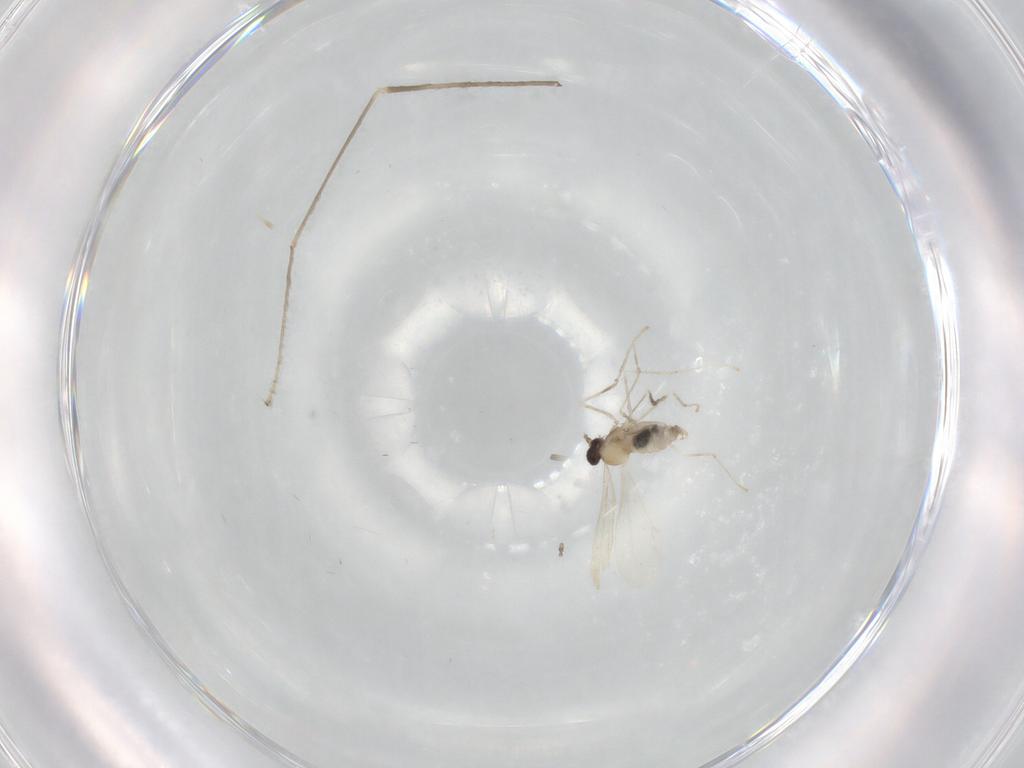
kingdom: Animalia
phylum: Arthropoda
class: Insecta
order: Diptera
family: Cecidomyiidae
